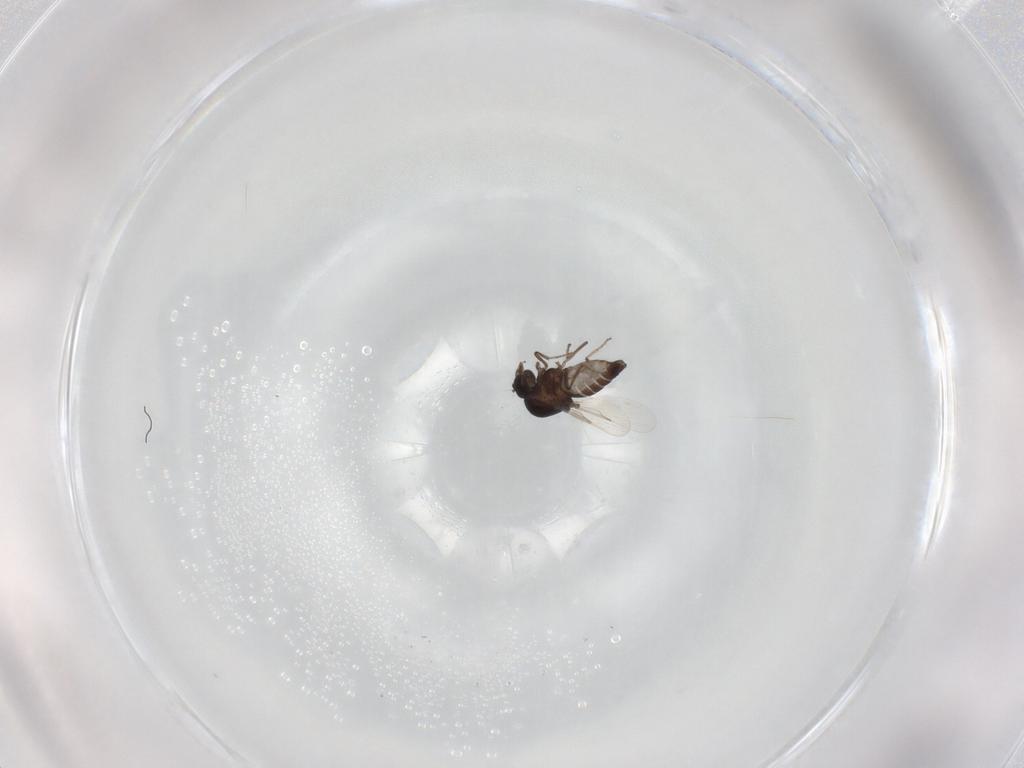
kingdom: Animalia
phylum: Arthropoda
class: Insecta
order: Diptera
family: Ceratopogonidae
